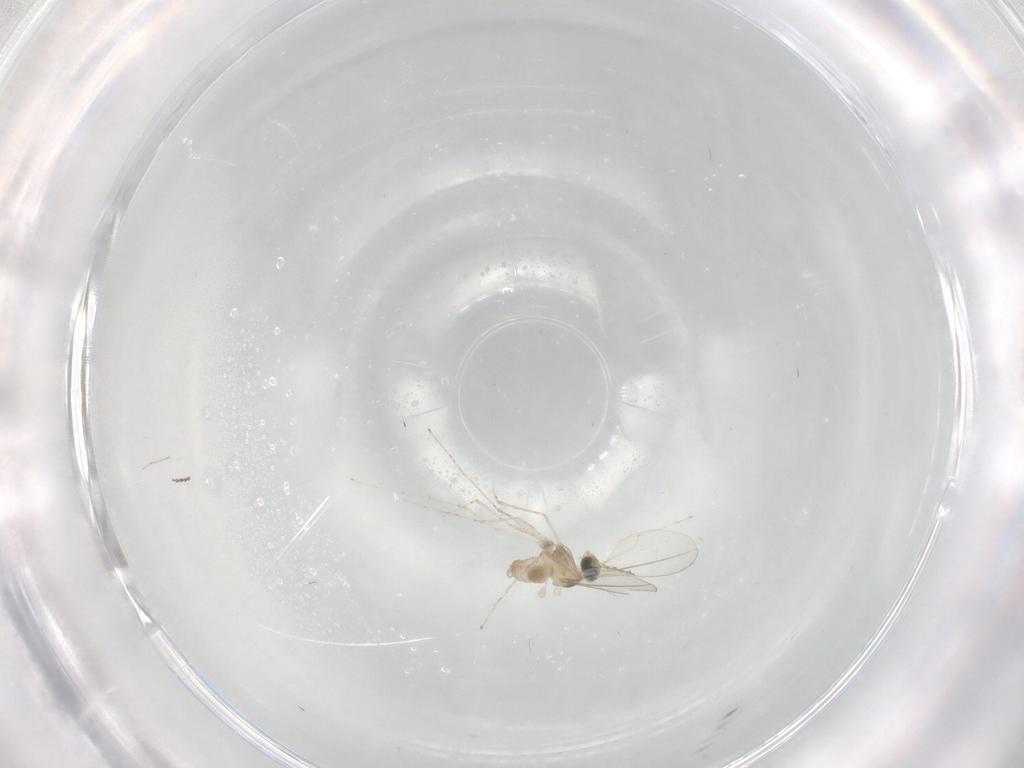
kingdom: Animalia
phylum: Arthropoda
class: Insecta
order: Diptera
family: Cecidomyiidae
